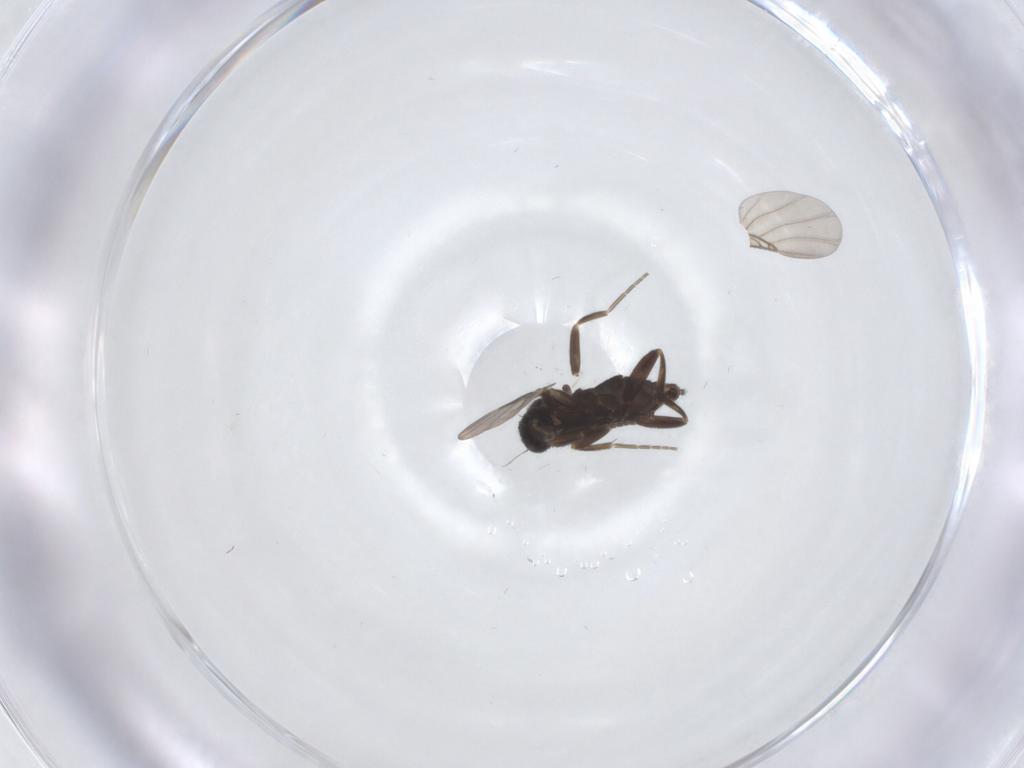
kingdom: Animalia
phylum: Arthropoda
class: Insecta
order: Diptera
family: Phoridae
